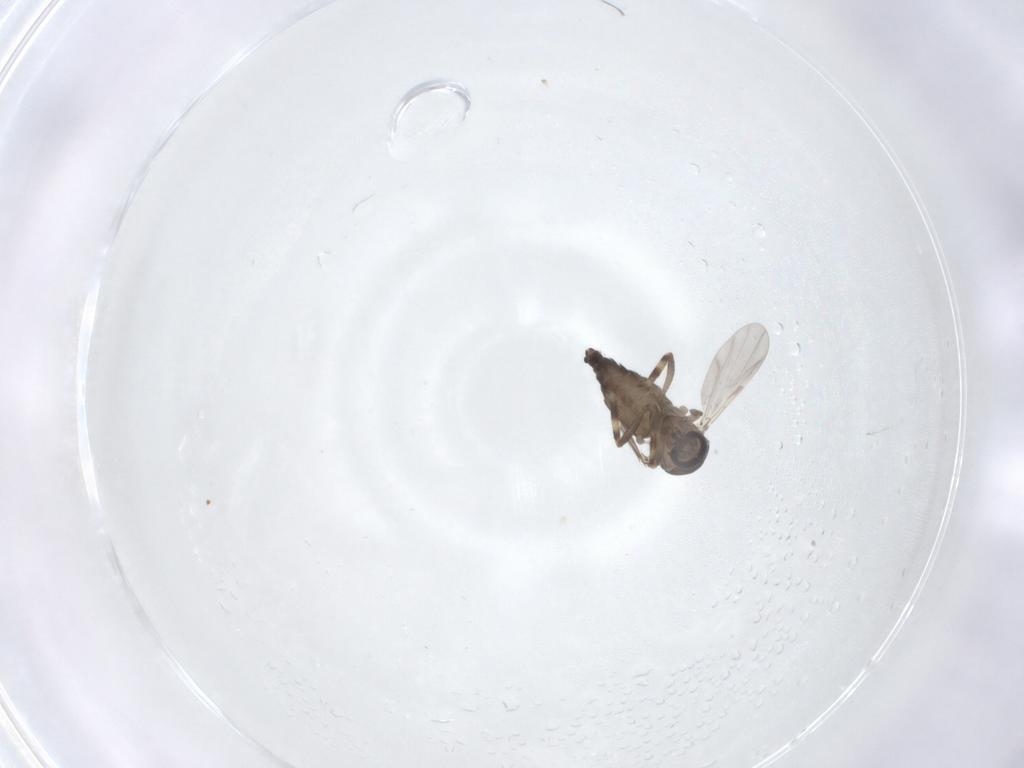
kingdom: Animalia
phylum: Arthropoda
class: Insecta
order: Diptera
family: Ceratopogonidae
